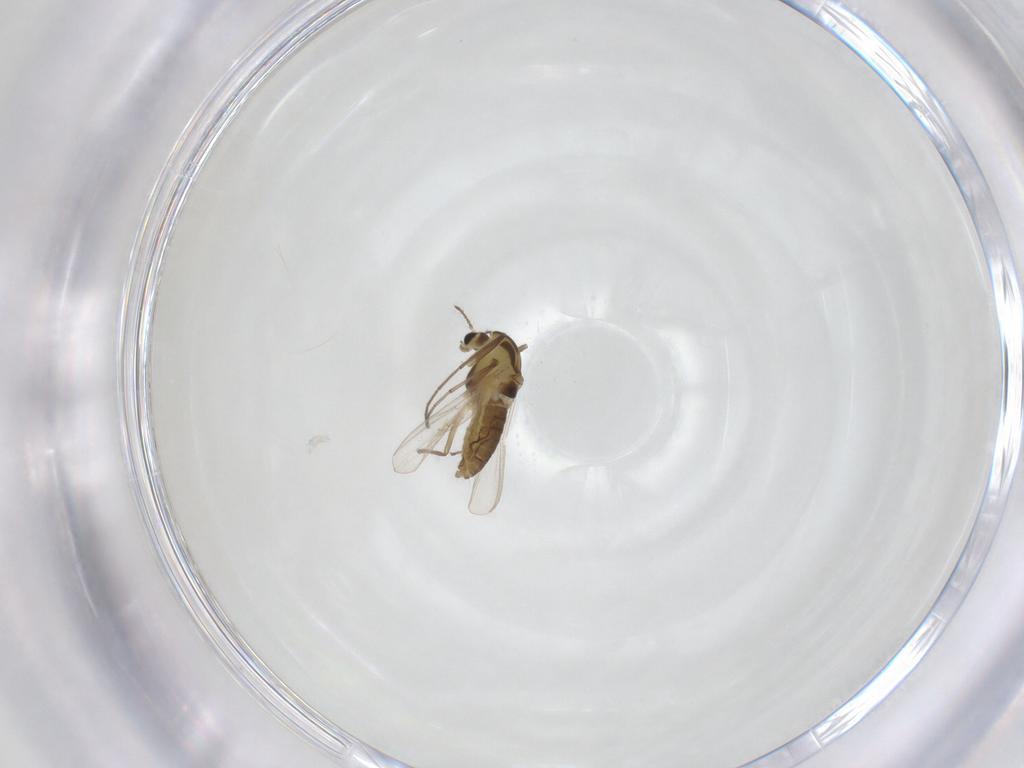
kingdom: Animalia
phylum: Arthropoda
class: Insecta
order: Diptera
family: Chironomidae
